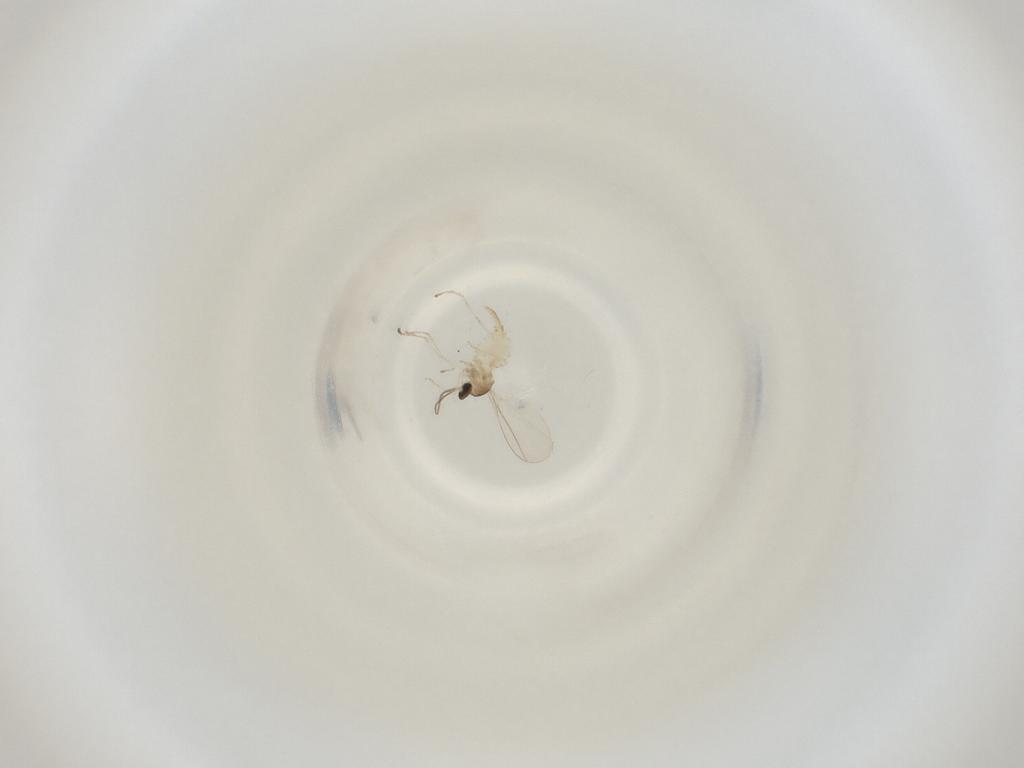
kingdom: Animalia
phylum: Arthropoda
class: Insecta
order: Diptera
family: Cecidomyiidae
